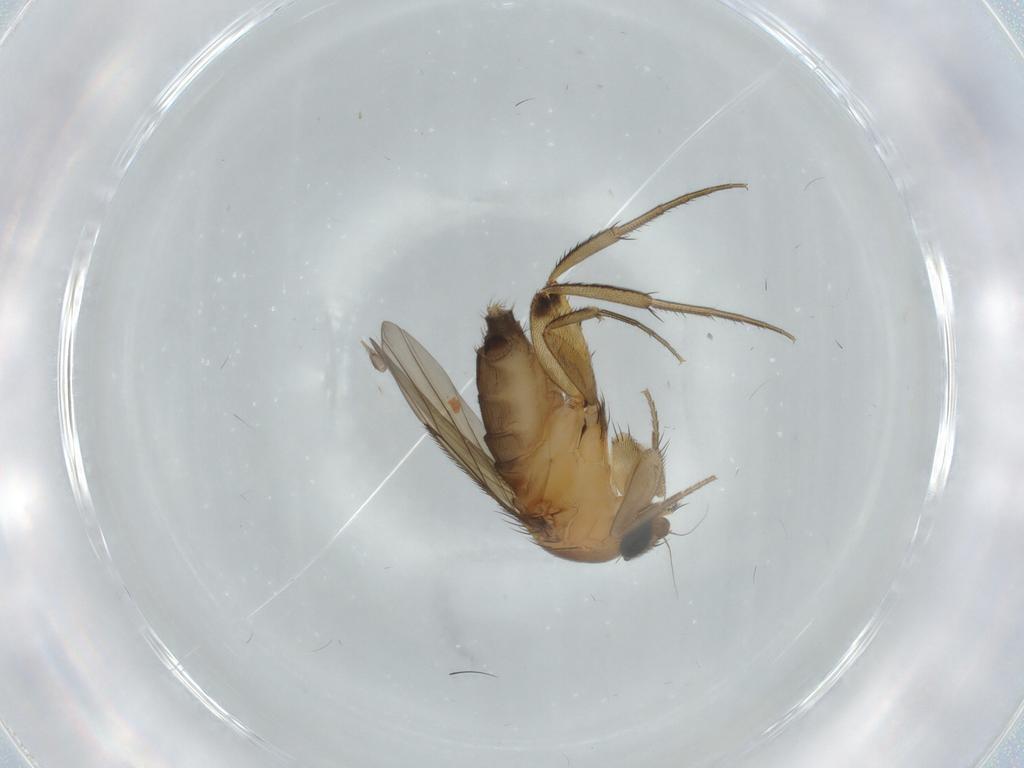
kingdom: Animalia
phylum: Arthropoda
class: Insecta
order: Diptera
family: Phoridae
